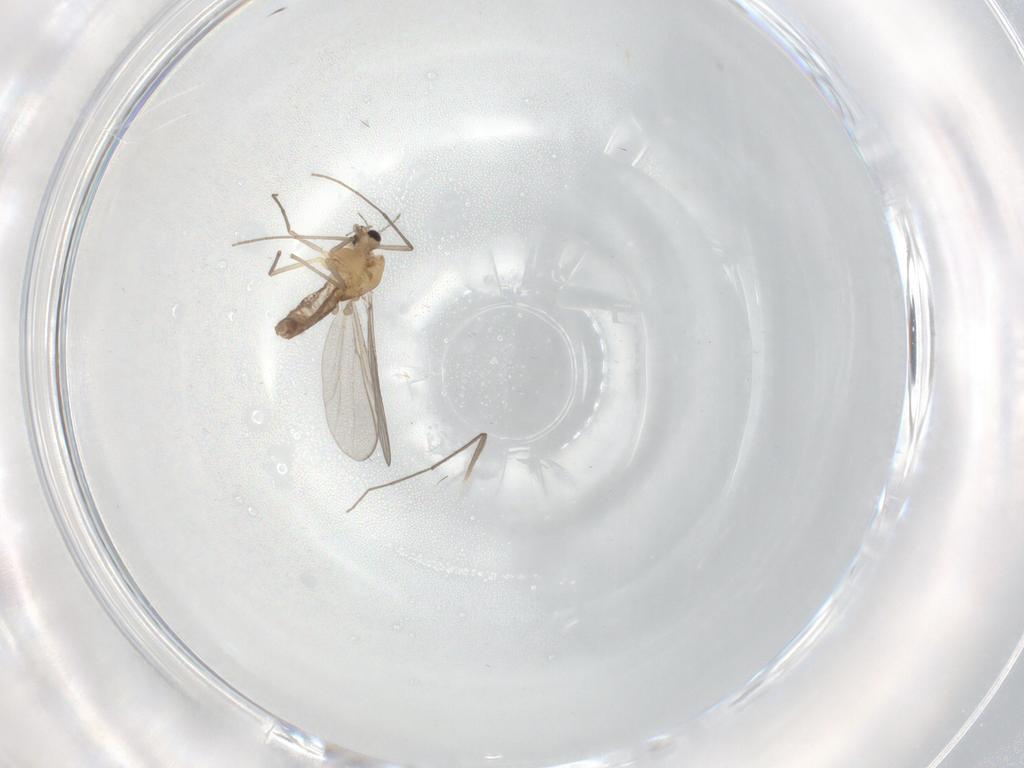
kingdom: Animalia
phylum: Arthropoda
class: Insecta
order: Diptera
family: Chironomidae
